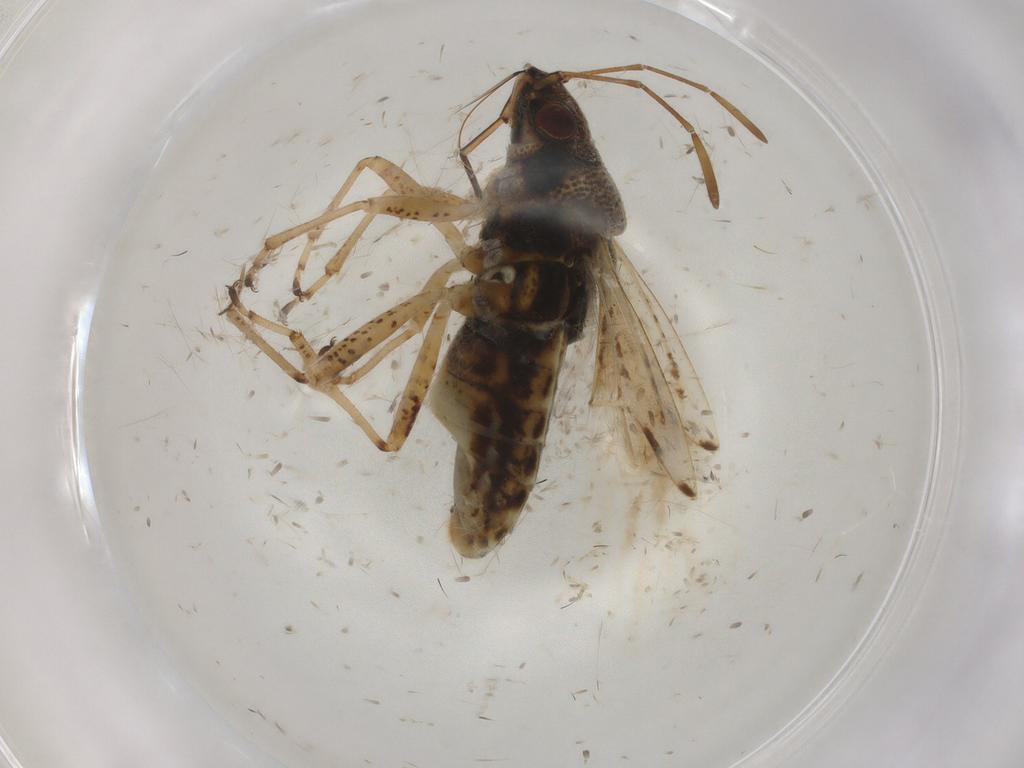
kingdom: Animalia
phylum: Arthropoda
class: Insecta
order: Hemiptera
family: Lygaeidae
